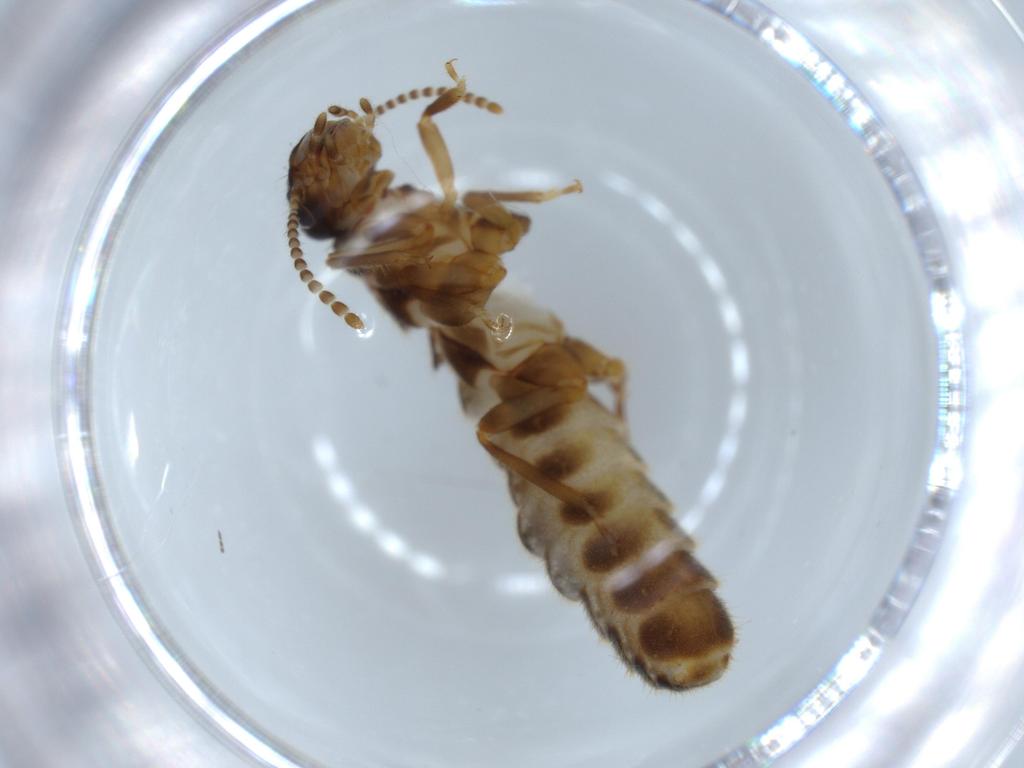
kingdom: Animalia
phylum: Arthropoda
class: Insecta
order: Blattodea
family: Termitidae
